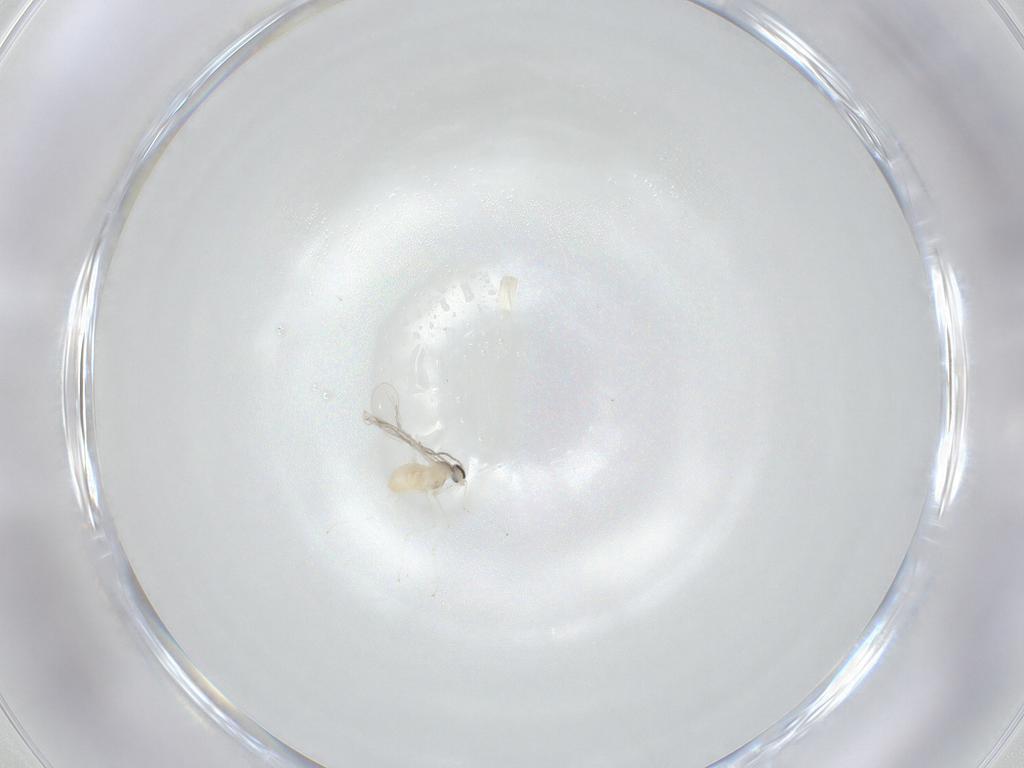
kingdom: Animalia
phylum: Arthropoda
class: Insecta
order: Diptera
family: Cecidomyiidae
